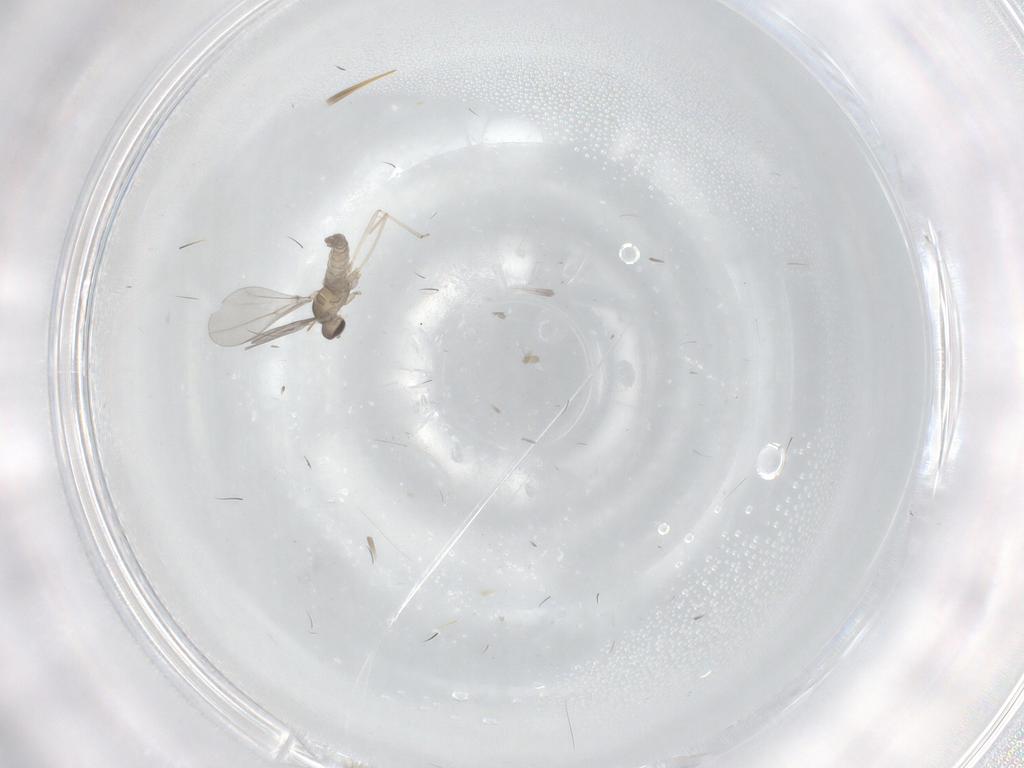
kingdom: Animalia
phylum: Arthropoda
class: Insecta
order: Diptera
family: Cecidomyiidae
